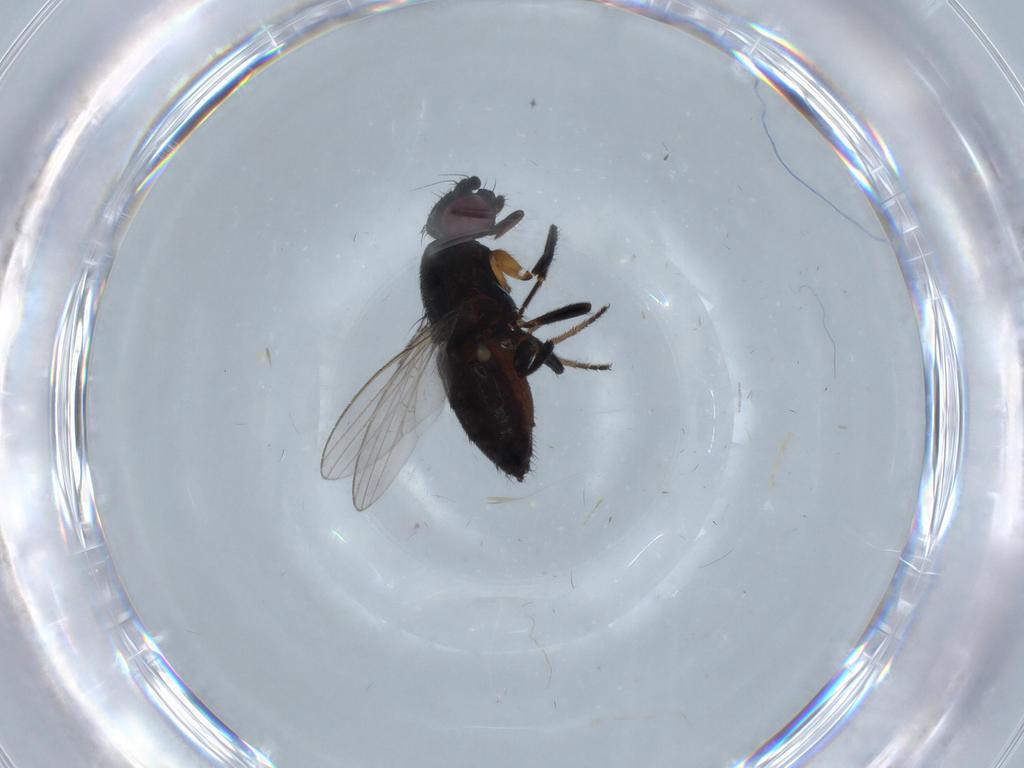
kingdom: Animalia
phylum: Arthropoda
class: Insecta
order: Diptera
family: Milichiidae
